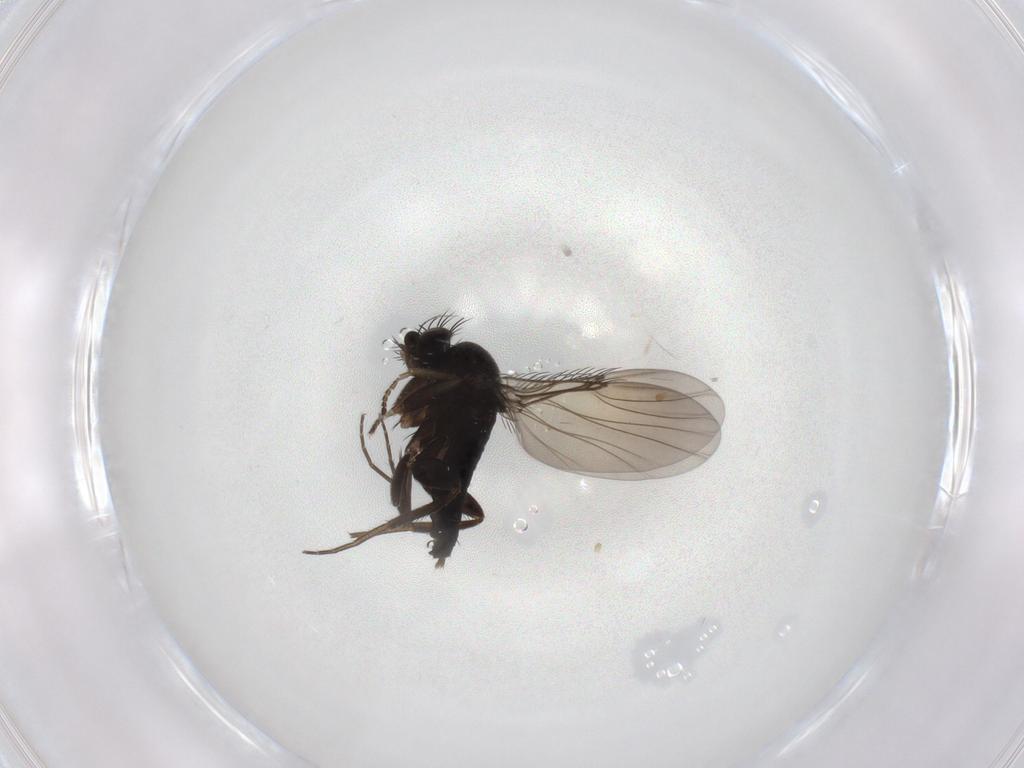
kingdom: Animalia
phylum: Arthropoda
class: Insecta
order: Diptera
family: Phoridae
